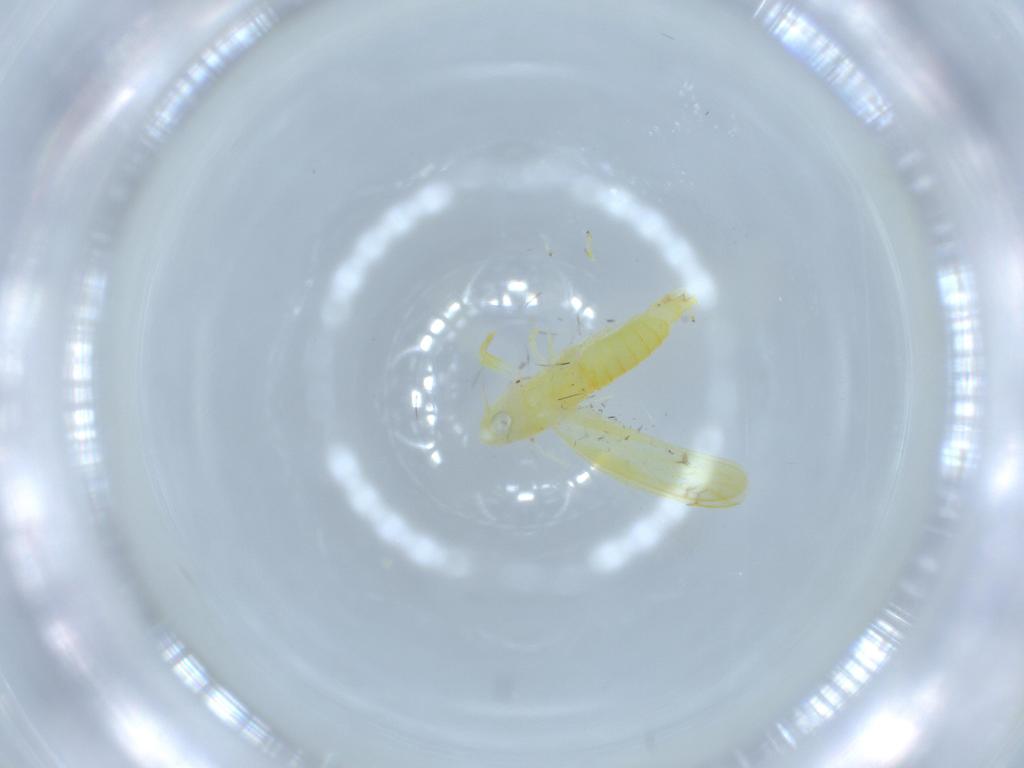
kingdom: Animalia
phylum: Arthropoda
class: Insecta
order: Hemiptera
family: Cicadellidae
